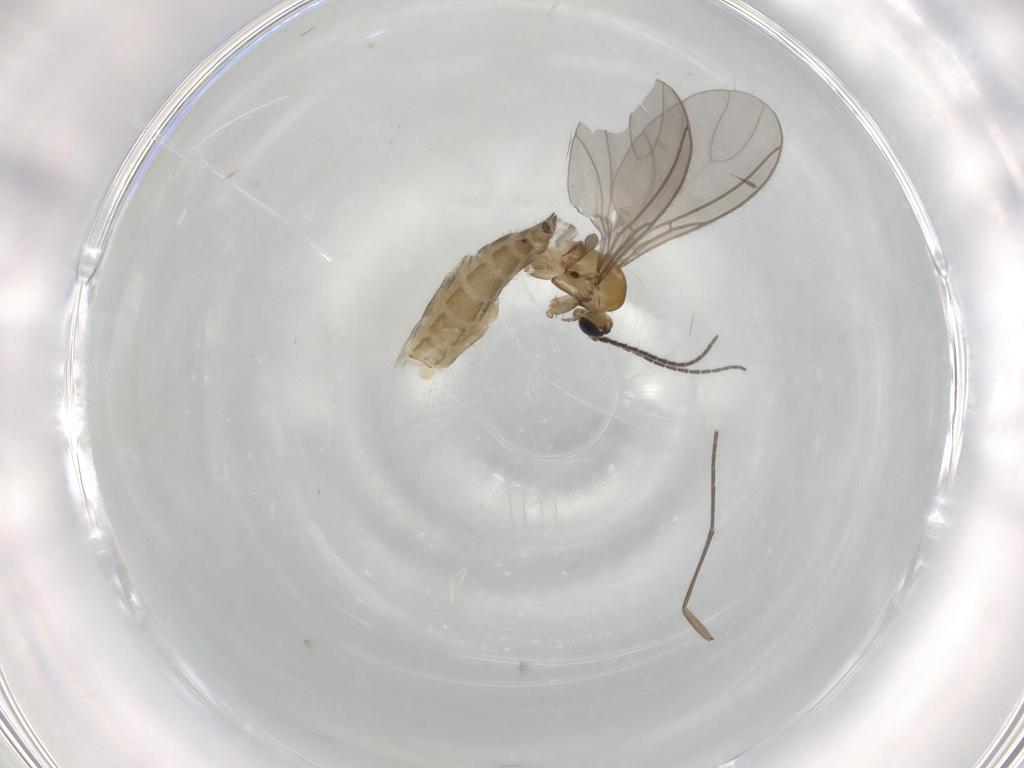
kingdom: Animalia
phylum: Arthropoda
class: Insecta
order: Diptera
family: Sciaridae
